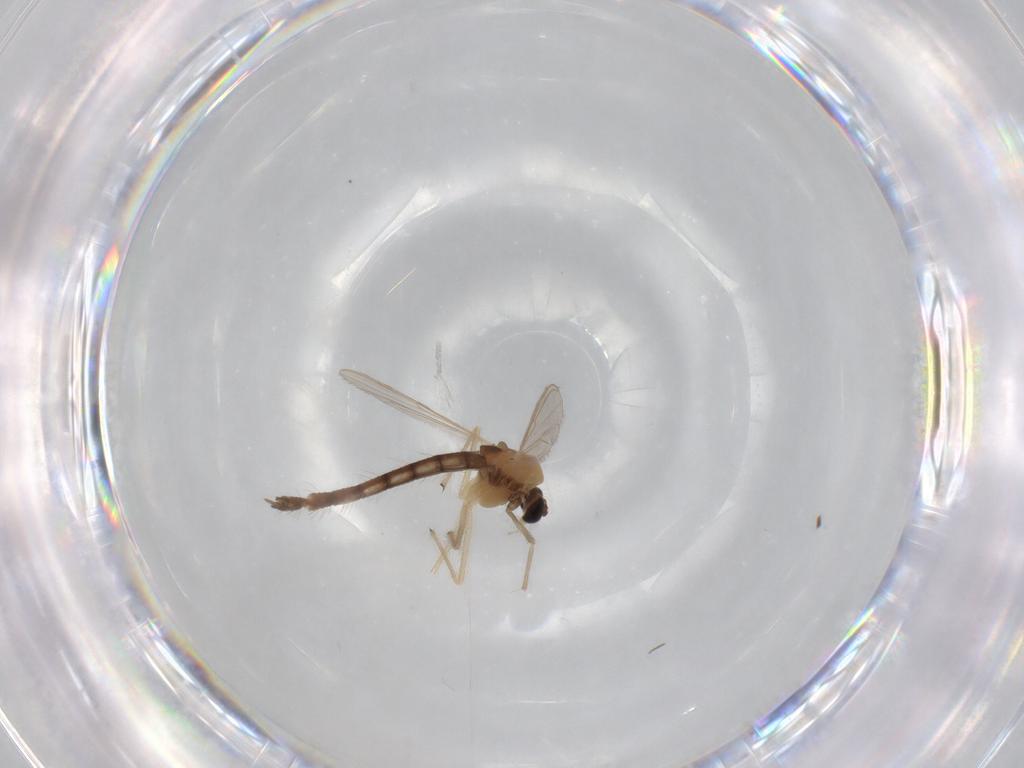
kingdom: Animalia
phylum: Arthropoda
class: Insecta
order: Diptera
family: Chironomidae
